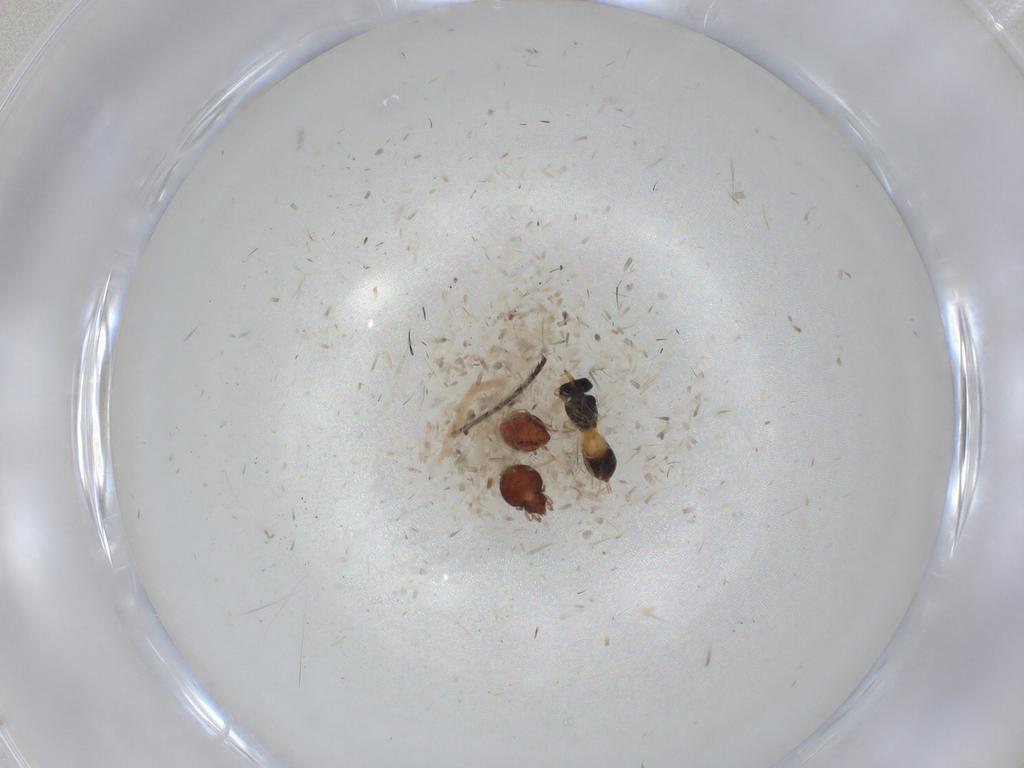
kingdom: Animalia
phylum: Arthropoda
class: Insecta
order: Hymenoptera
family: Scelionidae
